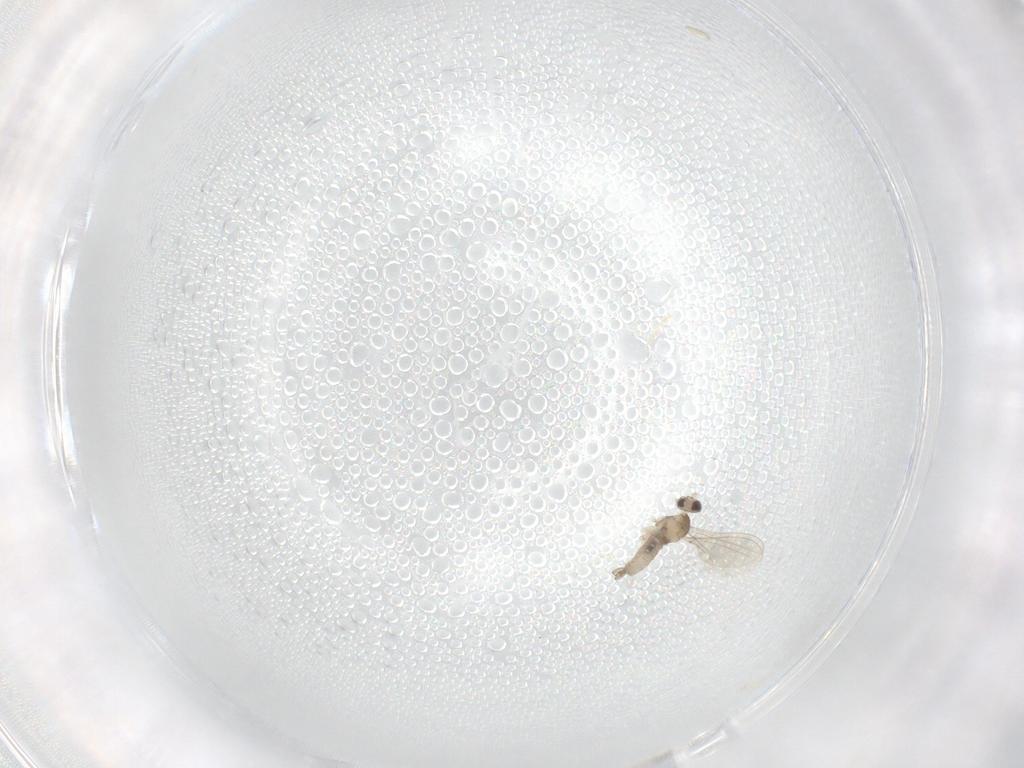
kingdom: Animalia
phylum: Arthropoda
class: Insecta
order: Diptera
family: Cecidomyiidae
